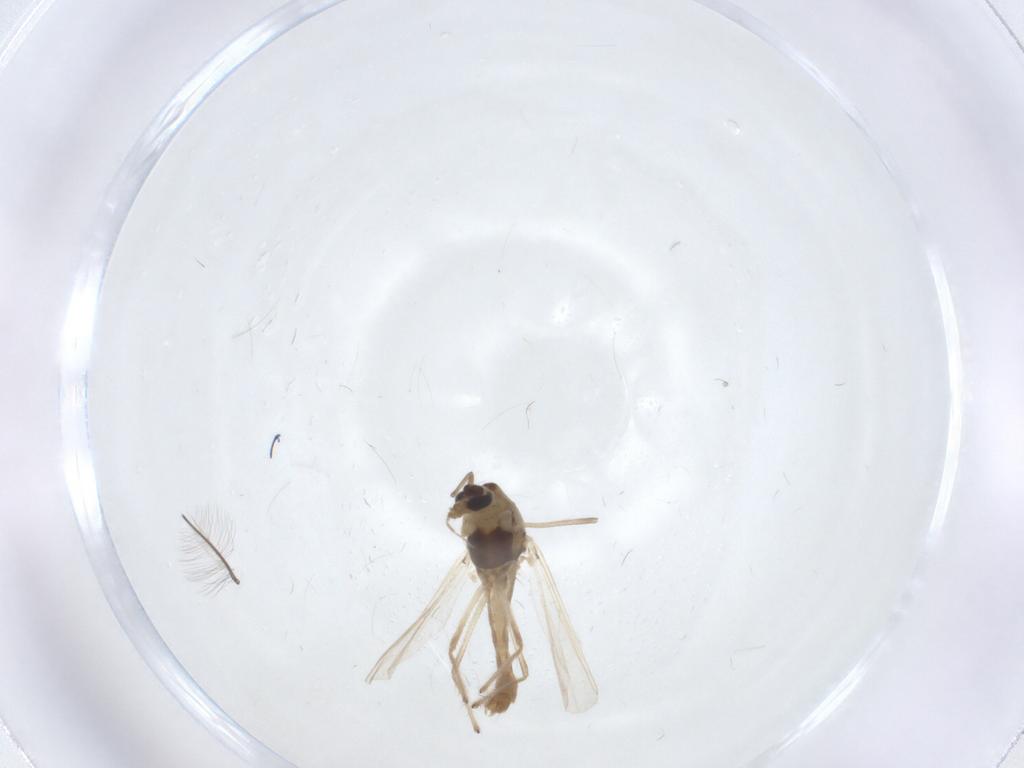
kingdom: Animalia
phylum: Arthropoda
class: Insecta
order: Diptera
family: Chironomidae
